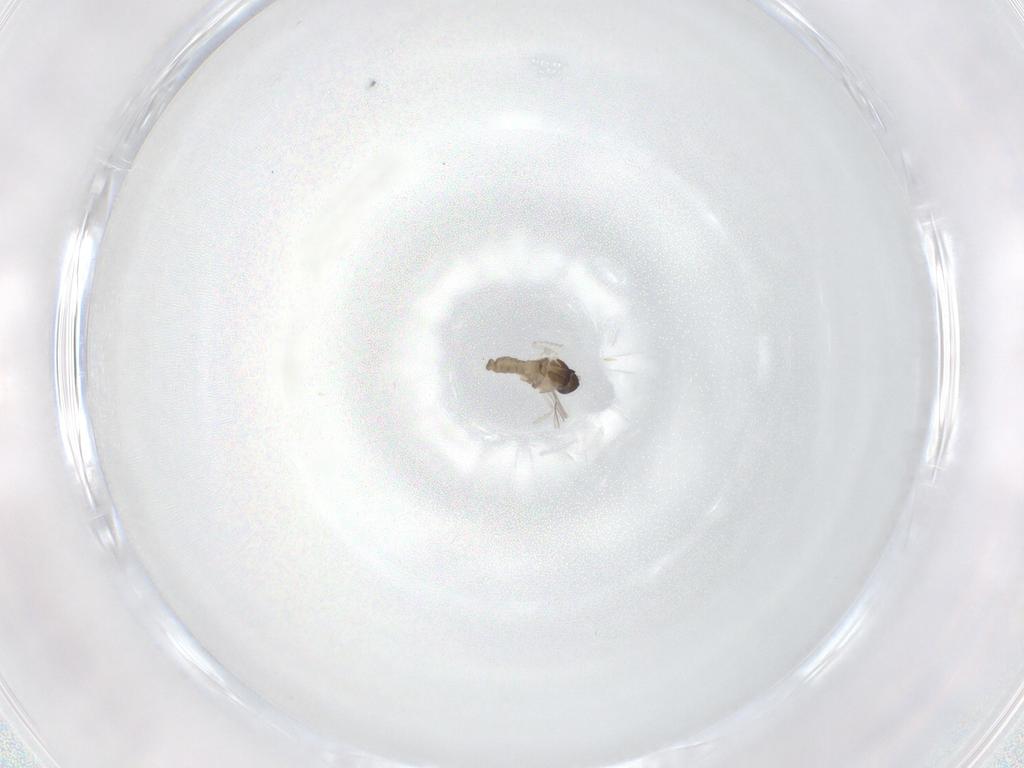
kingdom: Animalia
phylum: Arthropoda
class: Insecta
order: Diptera
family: Cecidomyiidae
